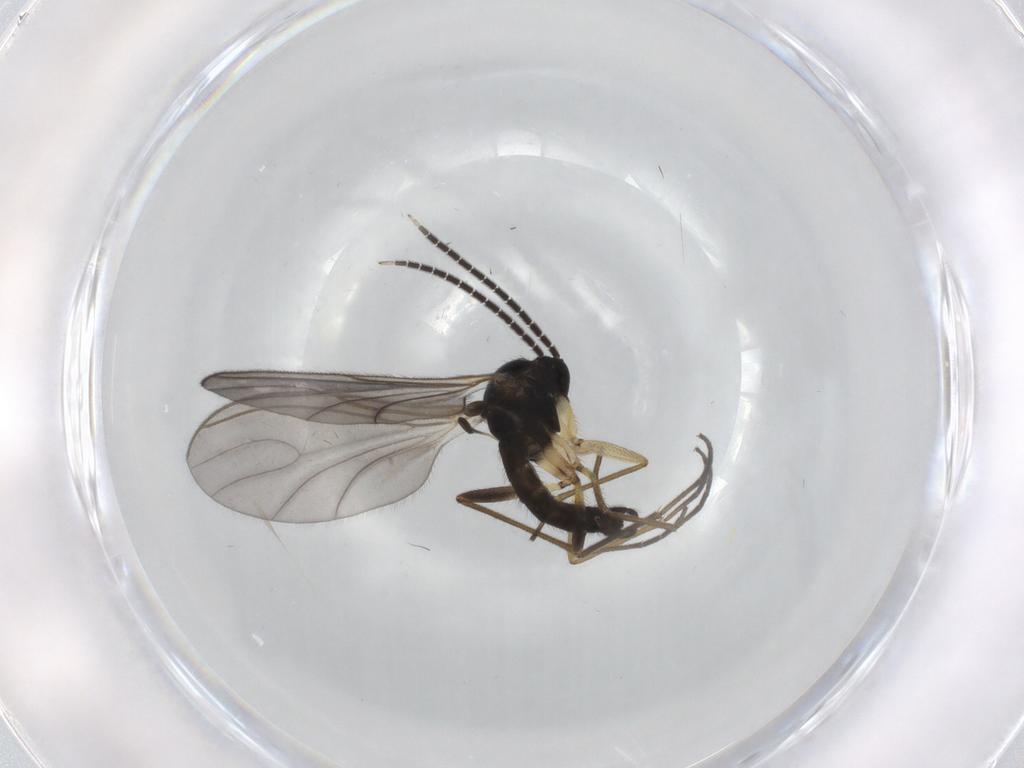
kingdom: Animalia
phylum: Arthropoda
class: Insecta
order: Diptera
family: Sciaridae
